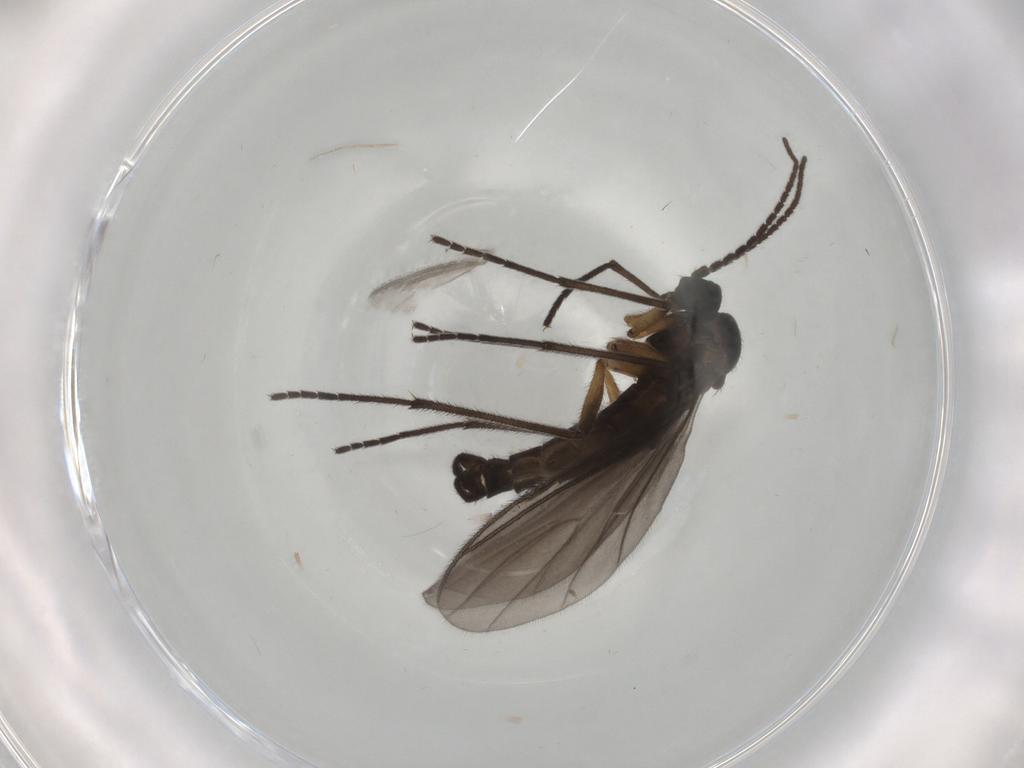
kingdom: Animalia
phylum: Arthropoda
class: Insecta
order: Diptera
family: Sciaridae
